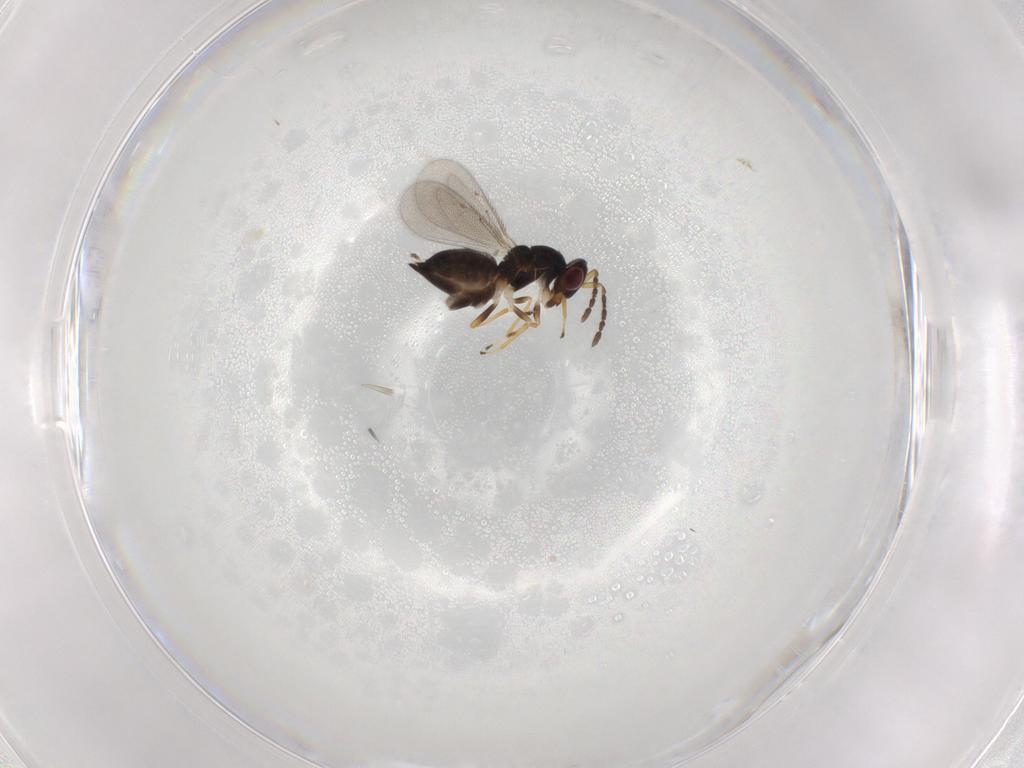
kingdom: Animalia
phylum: Arthropoda
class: Insecta
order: Hymenoptera
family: Eulophidae
